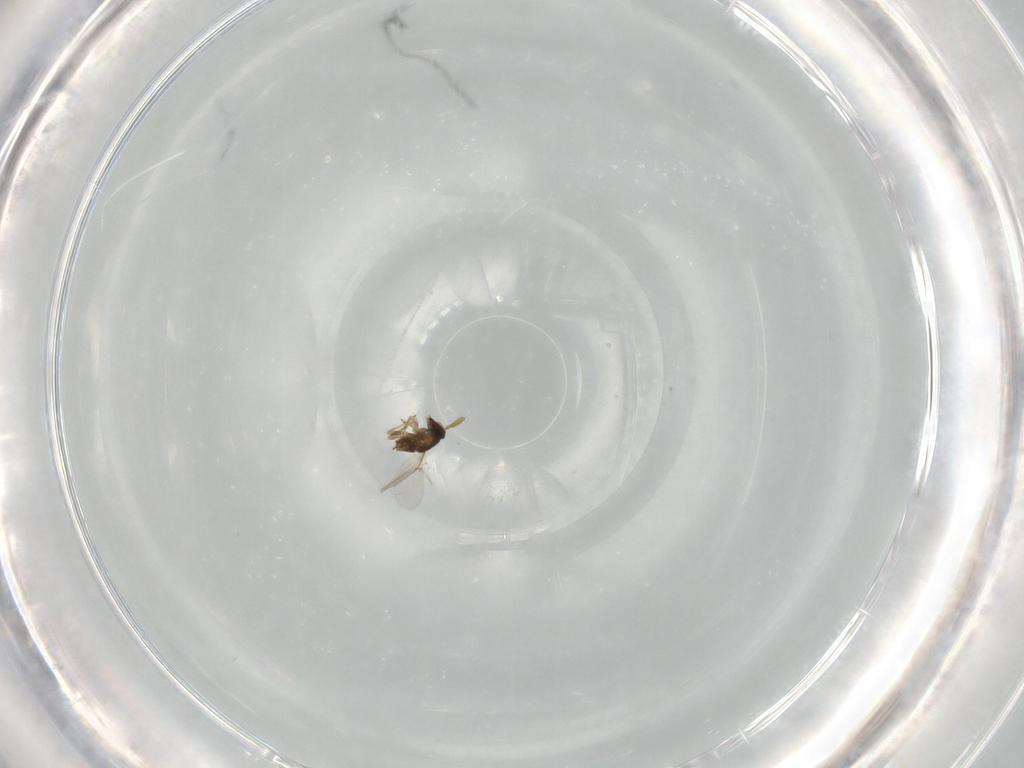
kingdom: Animalia
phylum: Arthropoda
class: Insecta
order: Hymenoptera
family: Encyrtidae
